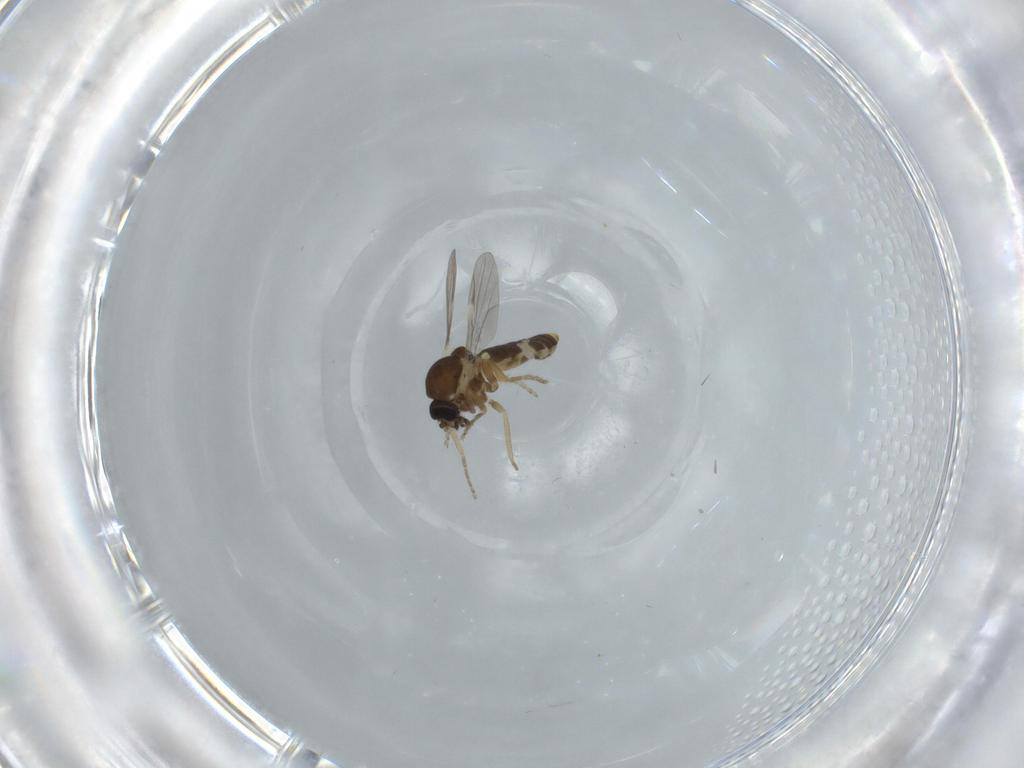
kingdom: Animalia
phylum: Arthropoda
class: Insecta
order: Diptera
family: Ceratopogonidae
